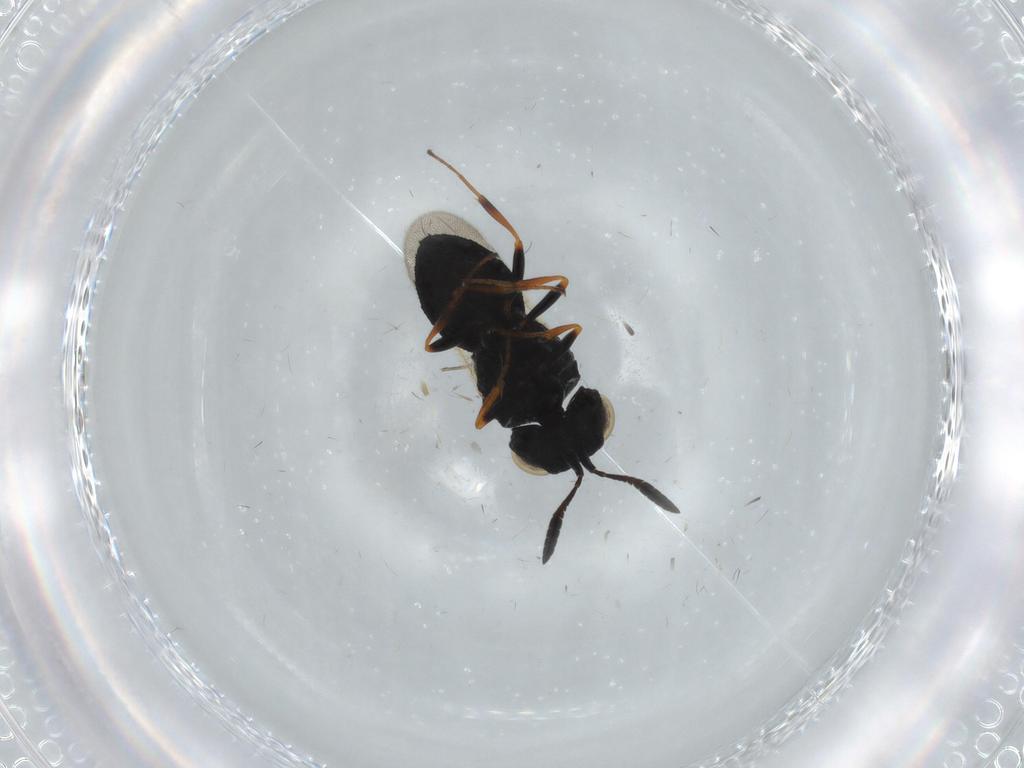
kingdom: Animalia
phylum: Arthropoda
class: Insecta
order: Hymenoptera
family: Scelionidae
